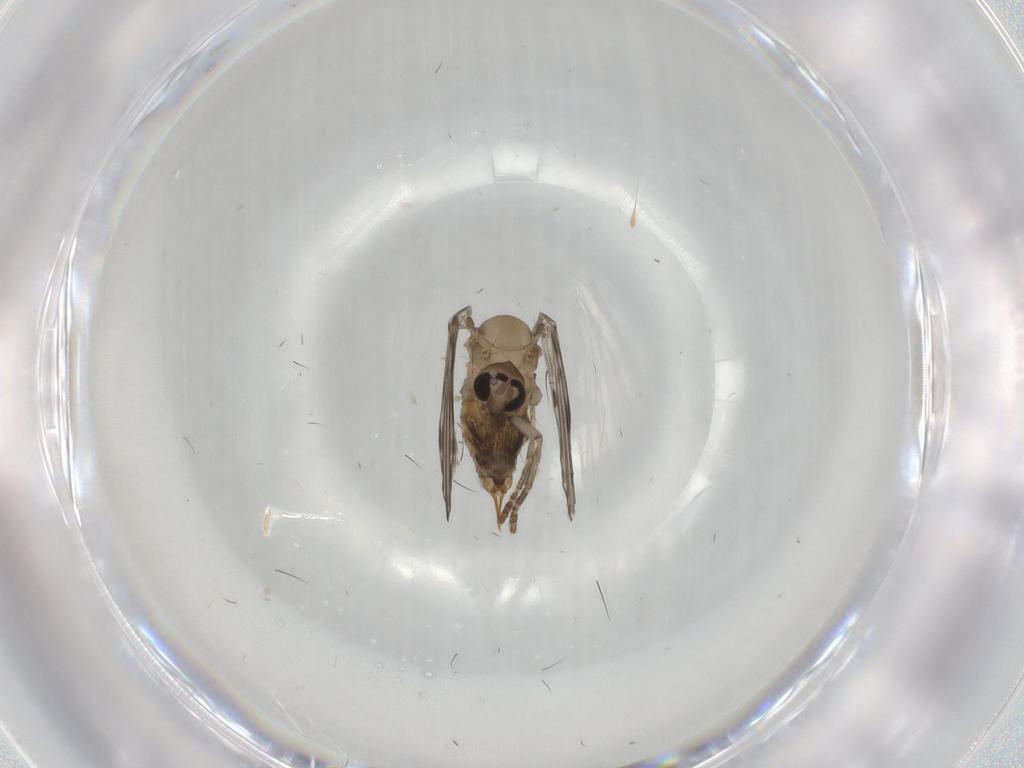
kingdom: Animalia
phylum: Arthropoda
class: Insecta
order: Diptera
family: Psychodidae
